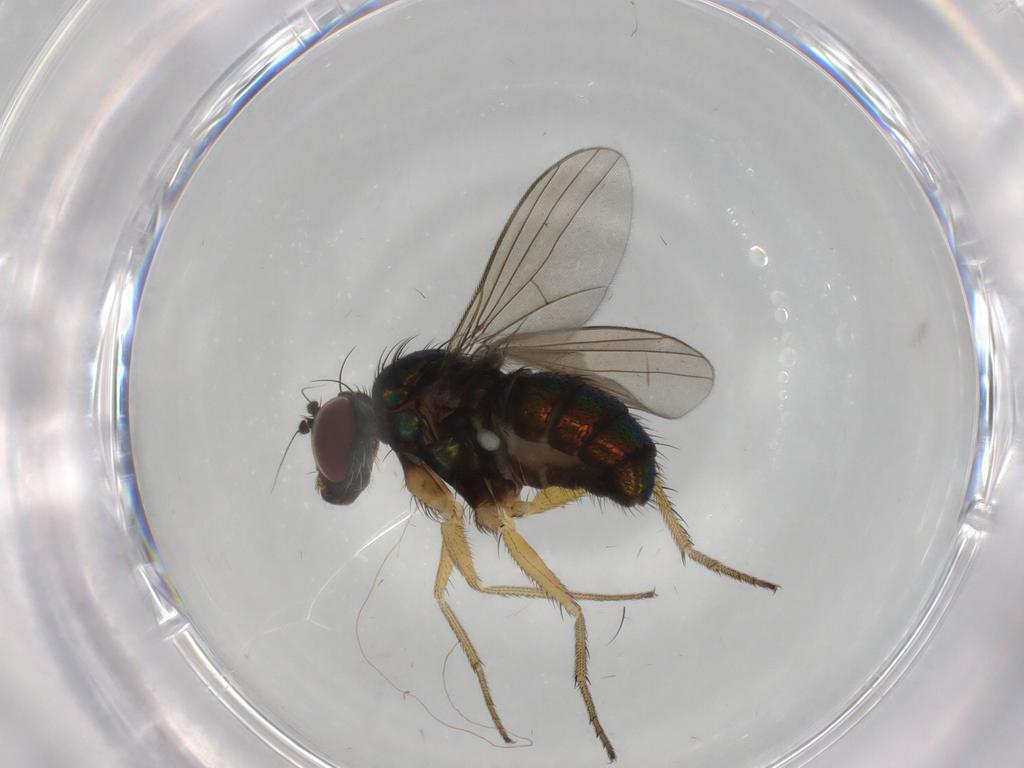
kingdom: Animalia
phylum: Arthropoda
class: Insecta
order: Diptera
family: Dolichopodidae
